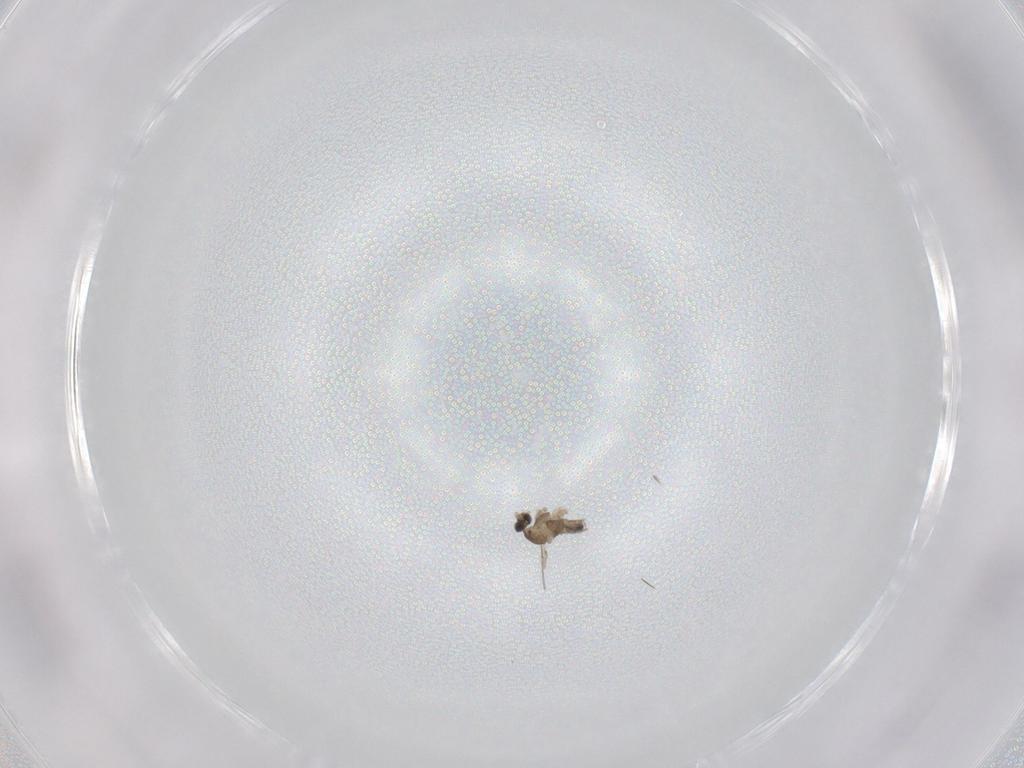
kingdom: Animalia
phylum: Arthropoda
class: Insecta
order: Diptera
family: Cecidomyiidae
